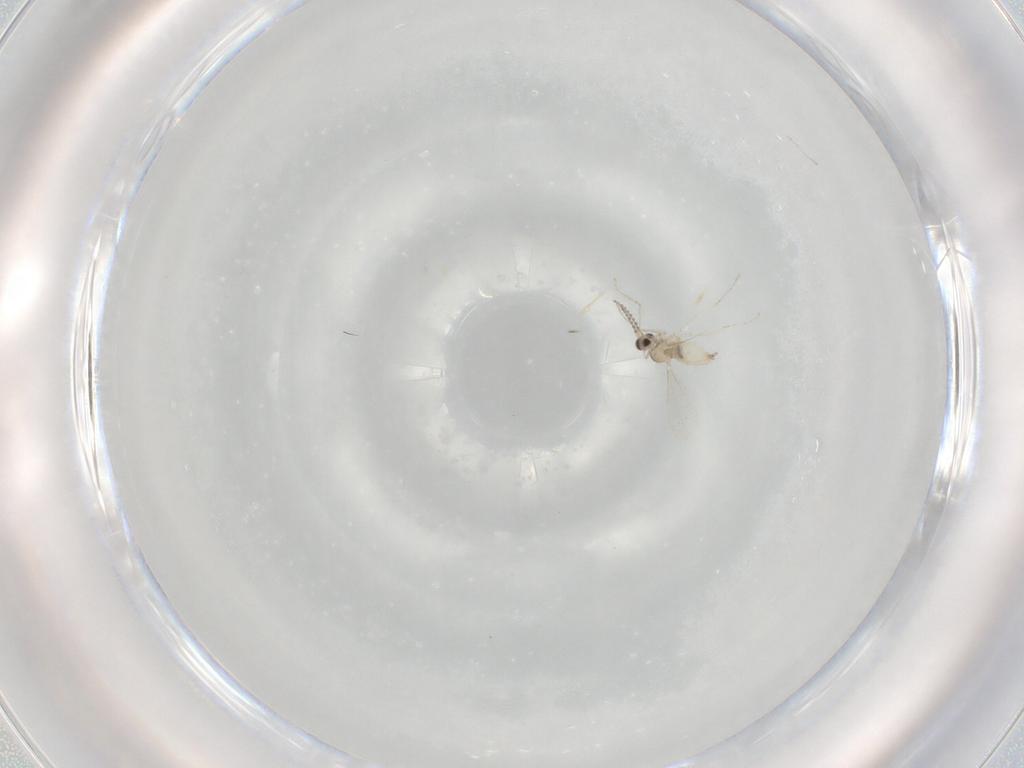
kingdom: Animalia
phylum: Arthropoda
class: Insecta
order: Diptera
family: Cecidomyiidae
